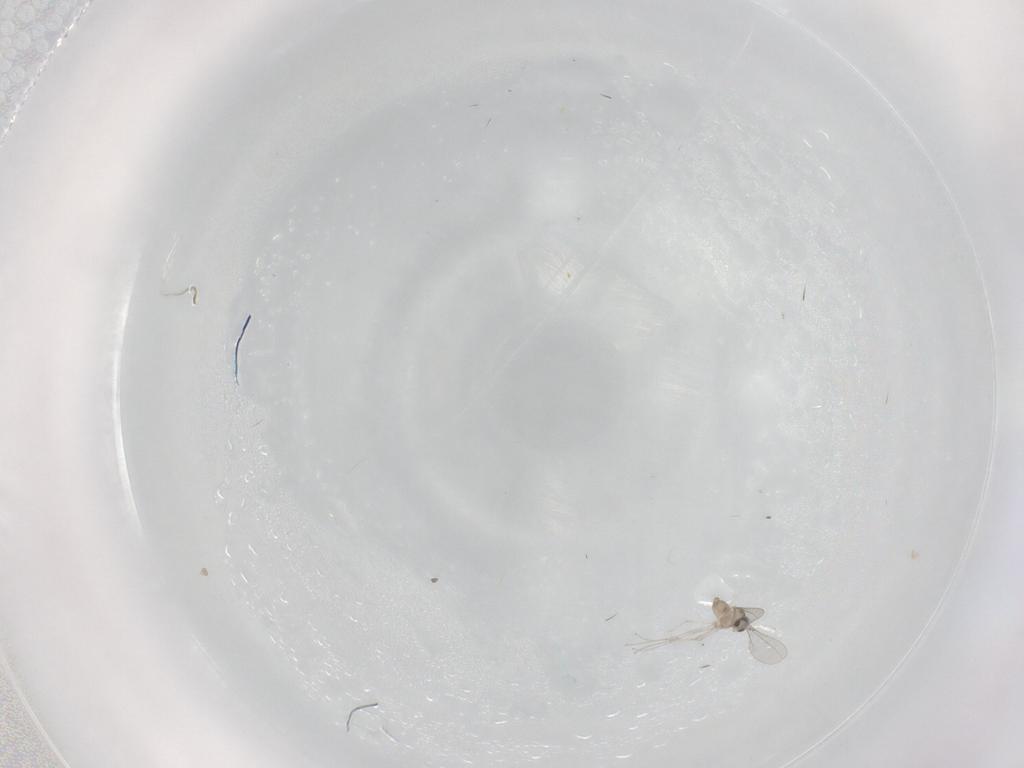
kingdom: Animalia
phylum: Arthropoda
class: Insecta
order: Diptera
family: Cecidomyiidae
